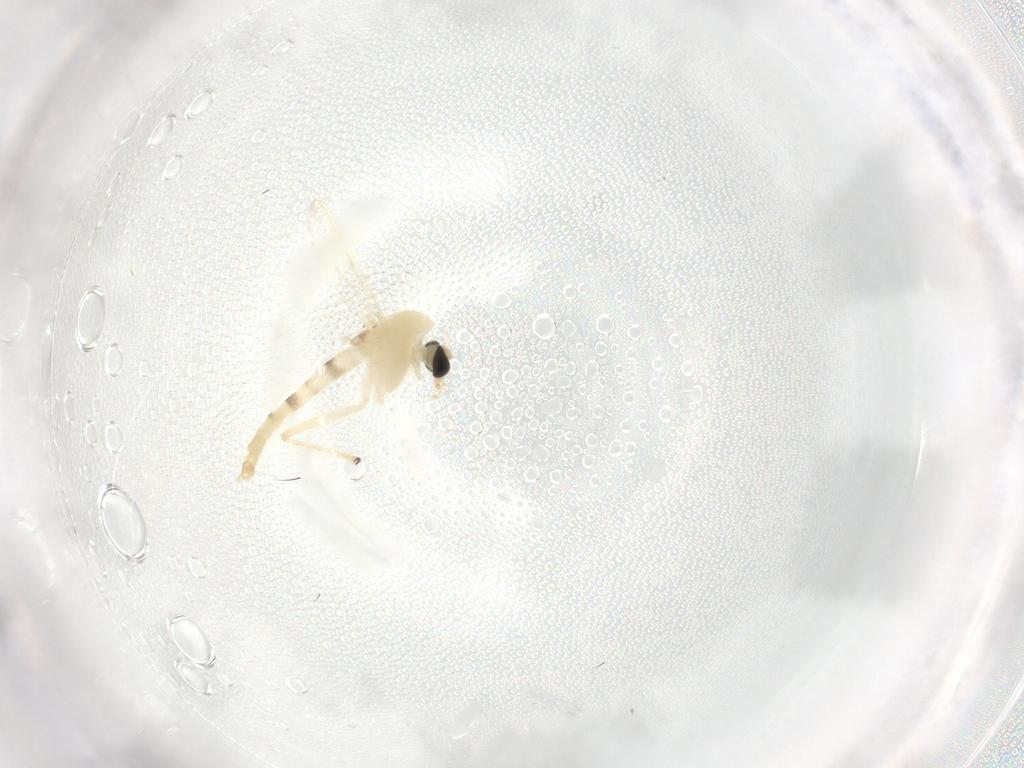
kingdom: Animalia
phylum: Arthropoda
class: Insecta
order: Diptera
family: Chironomidae
